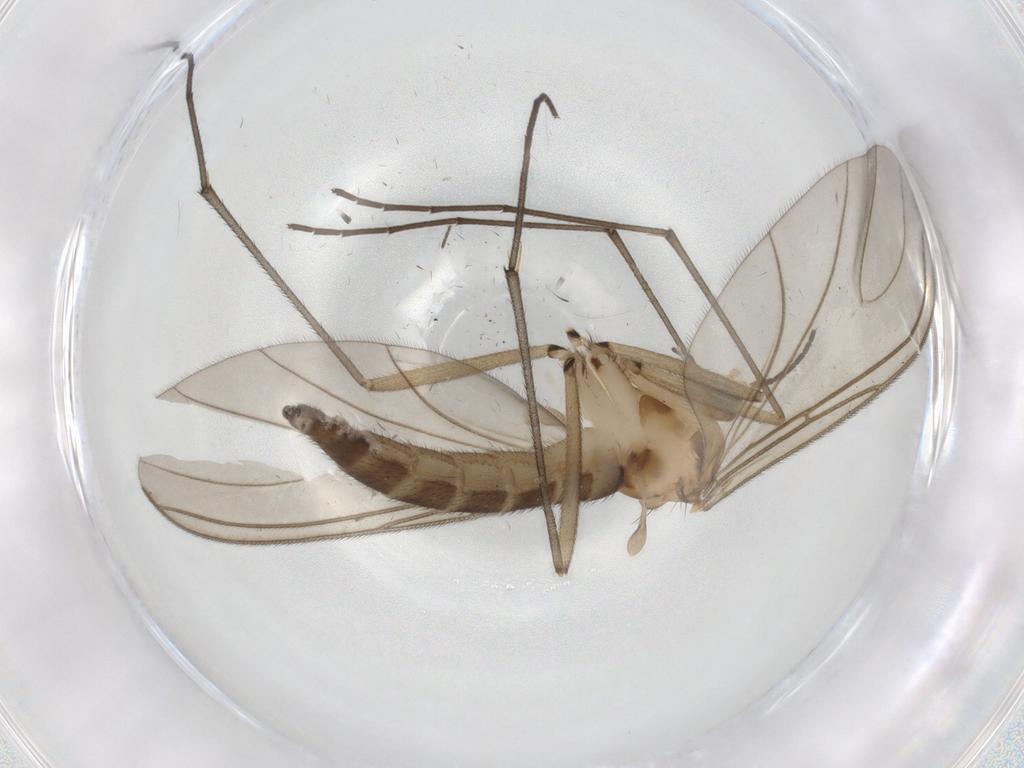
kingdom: Animalia
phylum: Arthropoda
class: Insecta
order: Diptera
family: Sciaridae
